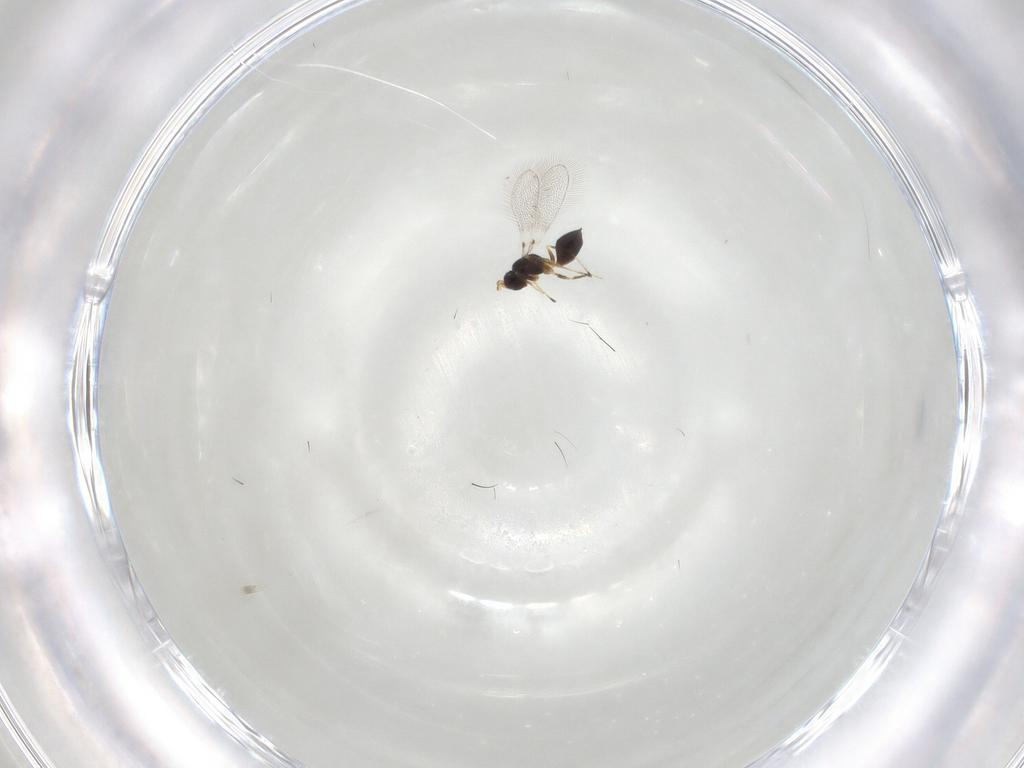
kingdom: Animalia
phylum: Arthropoda
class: Insecta
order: Hymenoptera
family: Mymaridae
